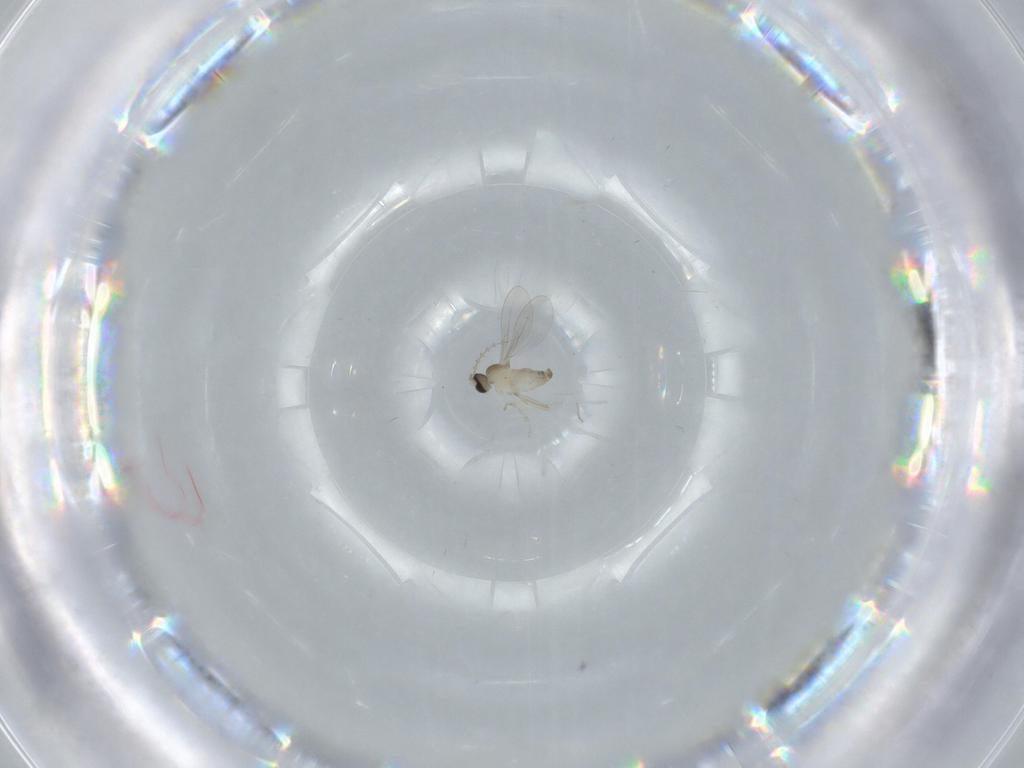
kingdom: Animalia
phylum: Arthropoda
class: Insecta
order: Diptera
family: Cecidomyiidae
